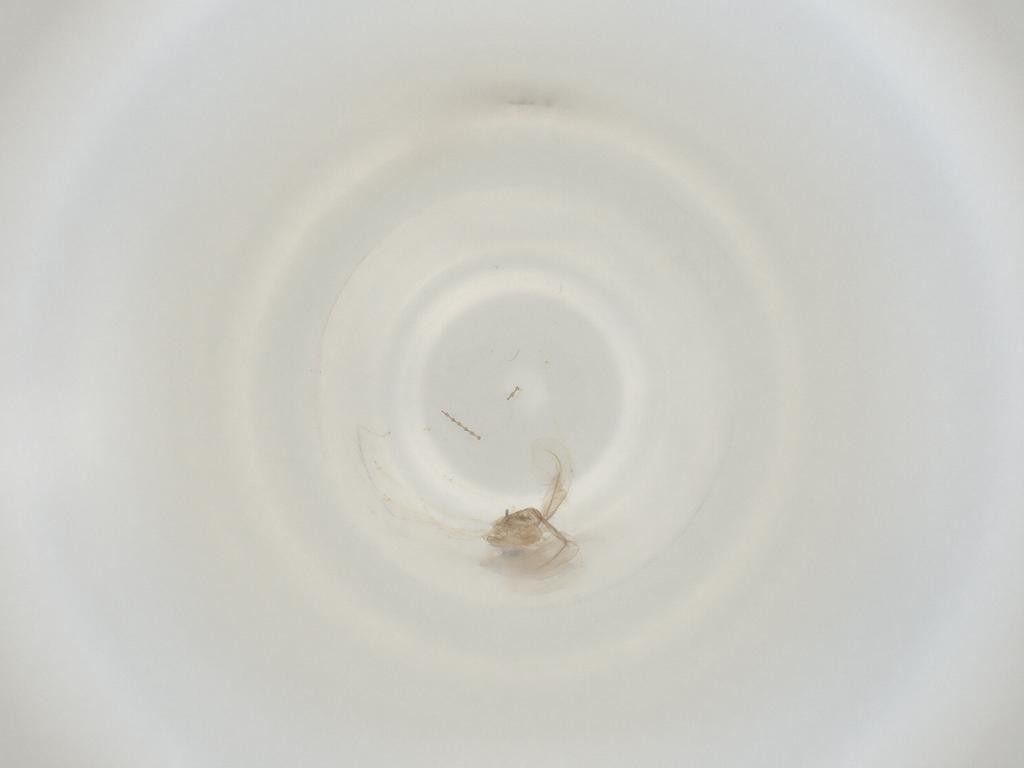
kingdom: Animalia
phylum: Arthropoda
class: Insecta
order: Diptera
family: Cecidomyiidae
